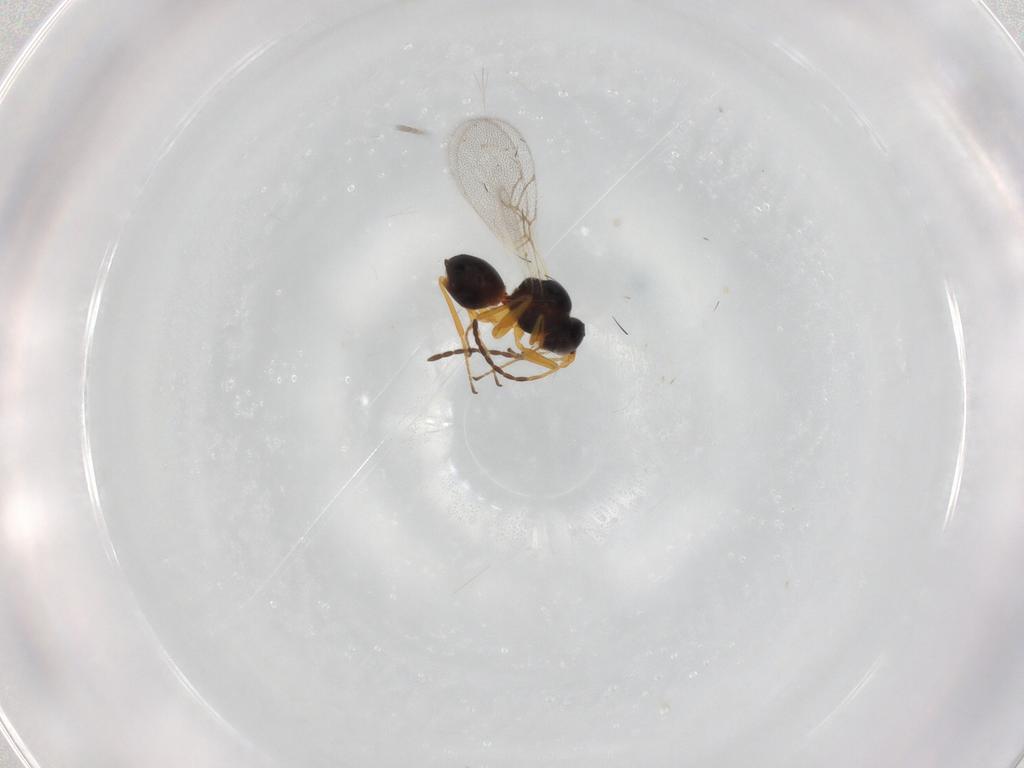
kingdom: Animalia
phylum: Arthropoda
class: Insecta
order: Hymenoptera
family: Figitidae
